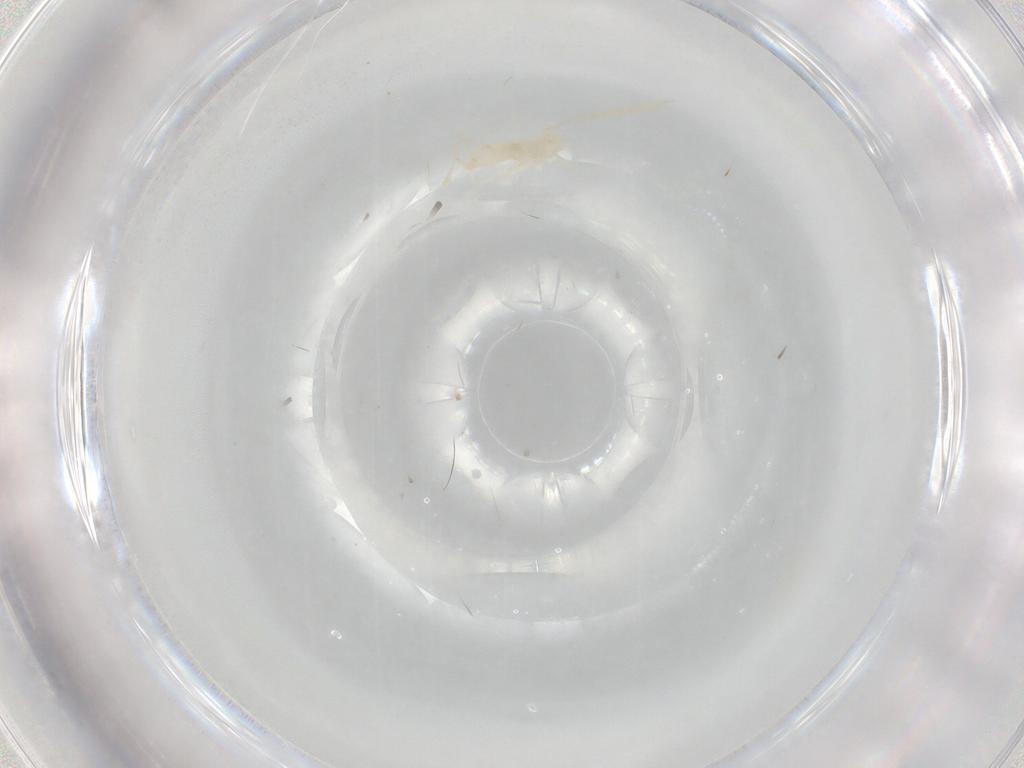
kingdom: Animalia
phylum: Arthropoda
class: Insecta
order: Diptera
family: Cecidomyiidae
